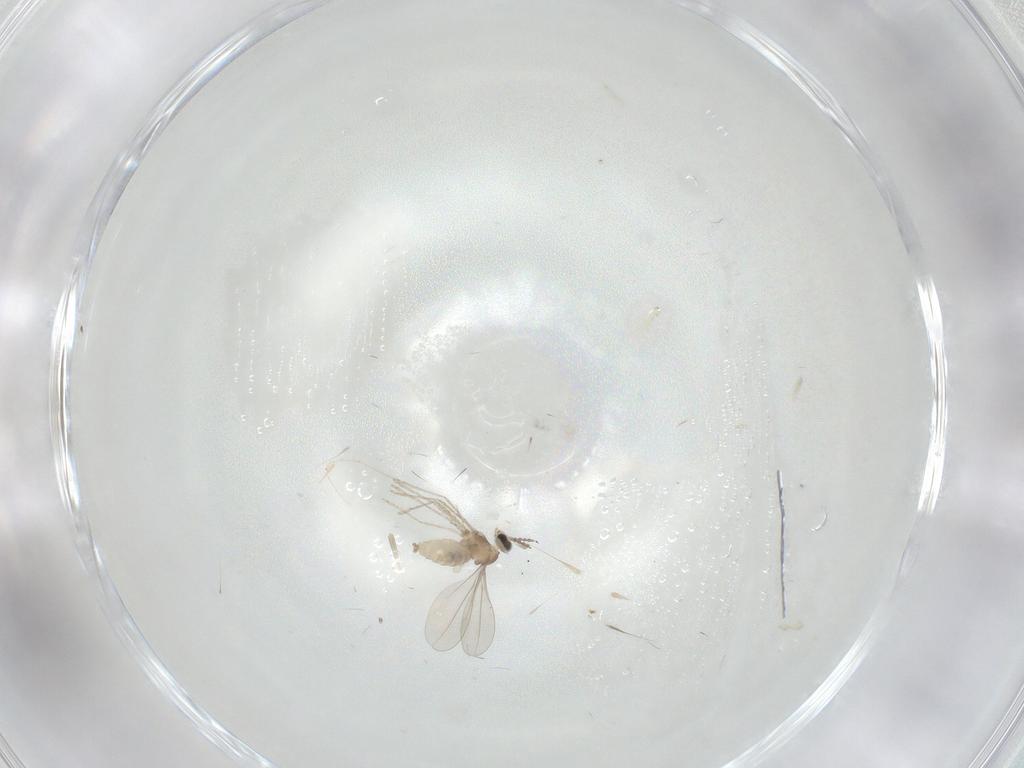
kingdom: Animalia
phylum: Arthropoda
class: Insecta
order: Diptera
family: Cecidomyiidae
